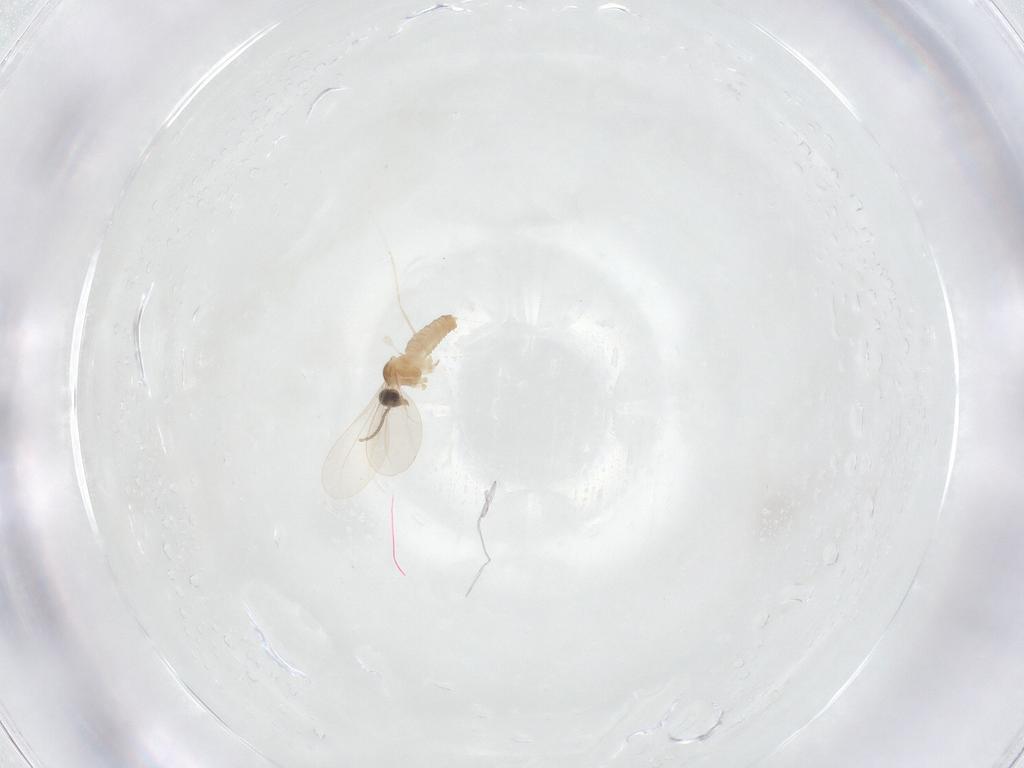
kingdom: Animalia
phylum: Arthropoda
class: Insecta
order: Diptera
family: Cecidomyiidae
